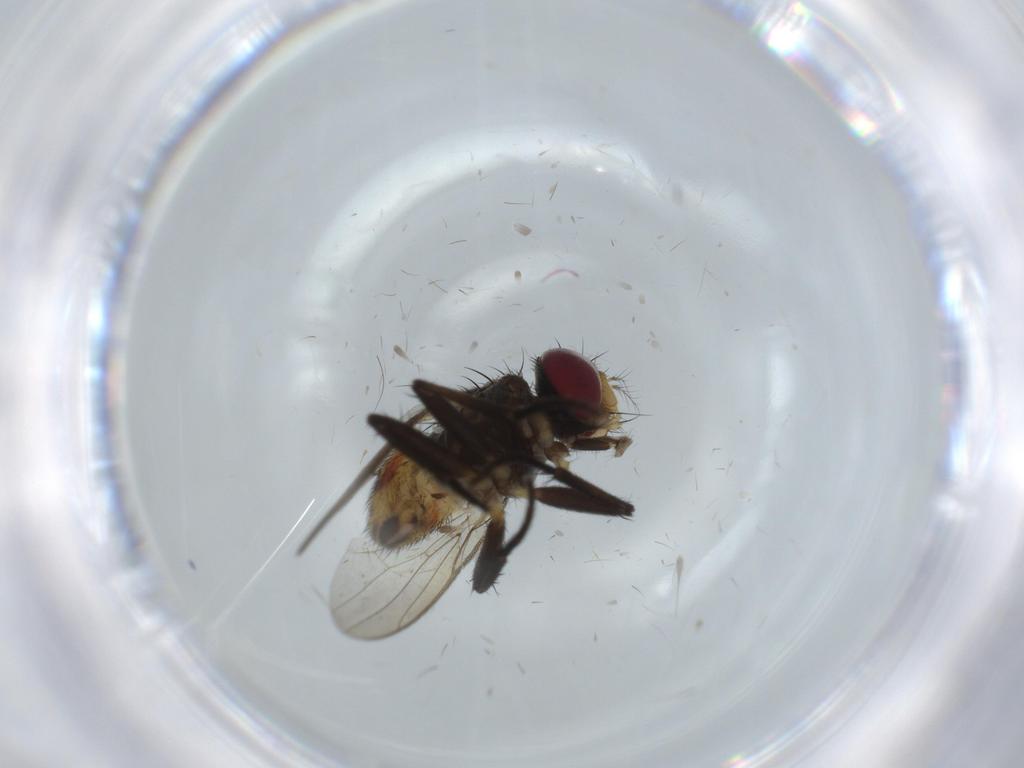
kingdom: Animalia
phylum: Arthropoda
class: Insecta
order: Diptera
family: Anthomyiidae
